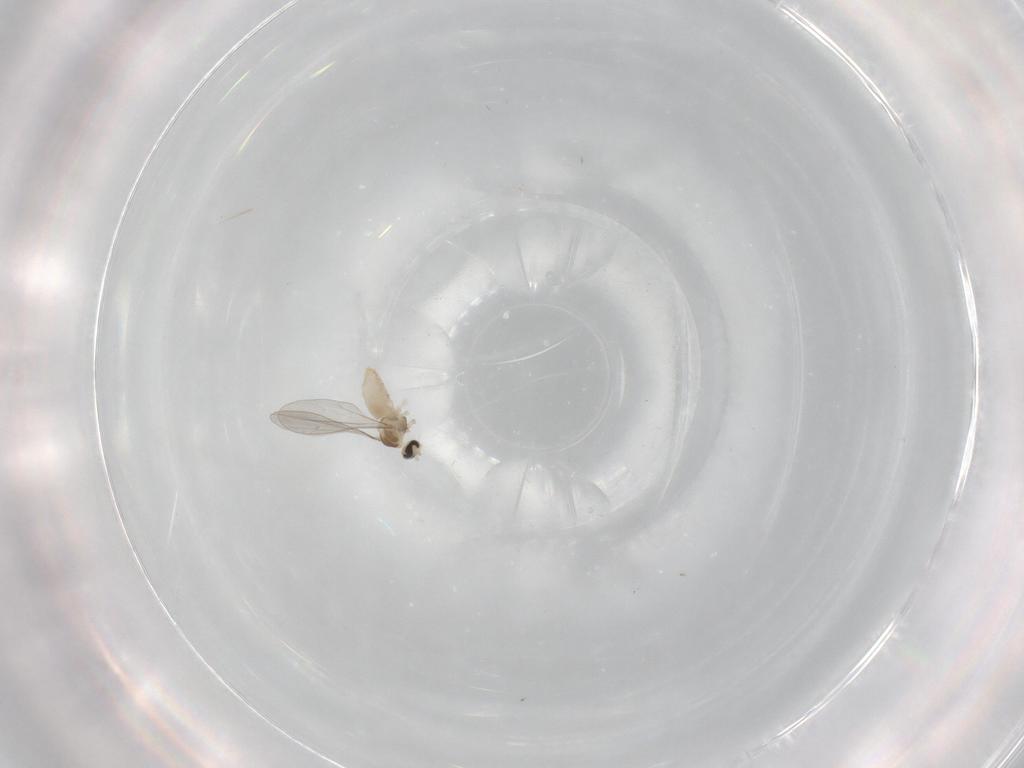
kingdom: Animalia
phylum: Arthropoda
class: Insecta
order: Diptera
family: Cecidomyiidae
